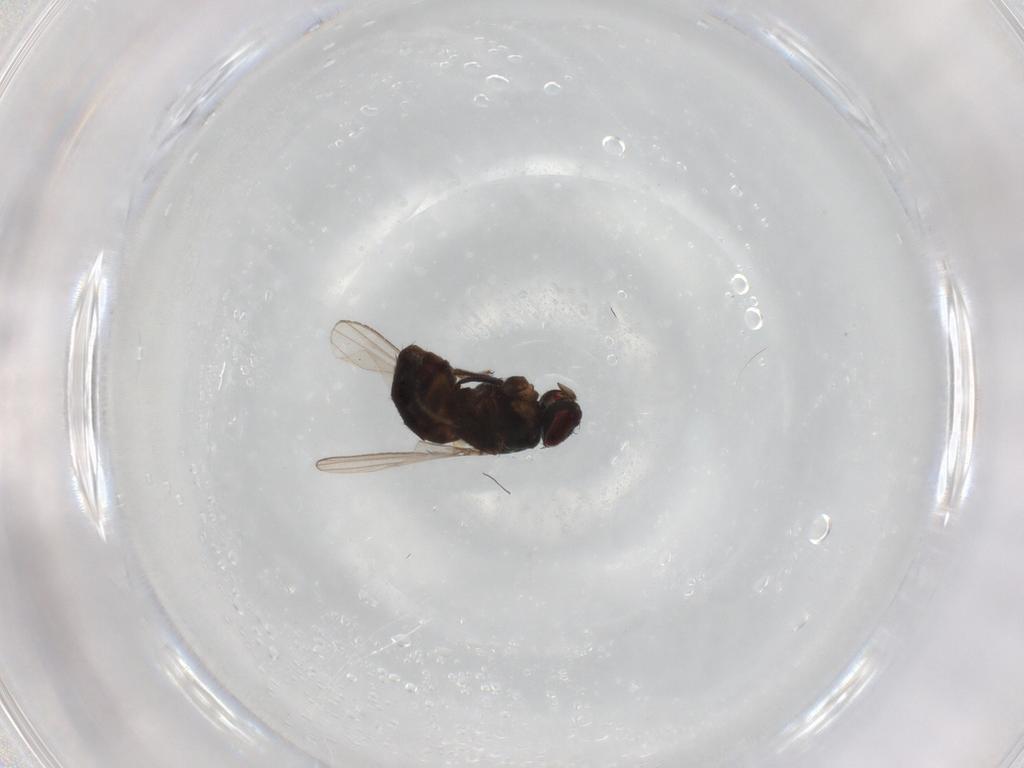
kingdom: Animalia
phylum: Arthropoda
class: Insecta
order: Diptera
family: Milichiidae
